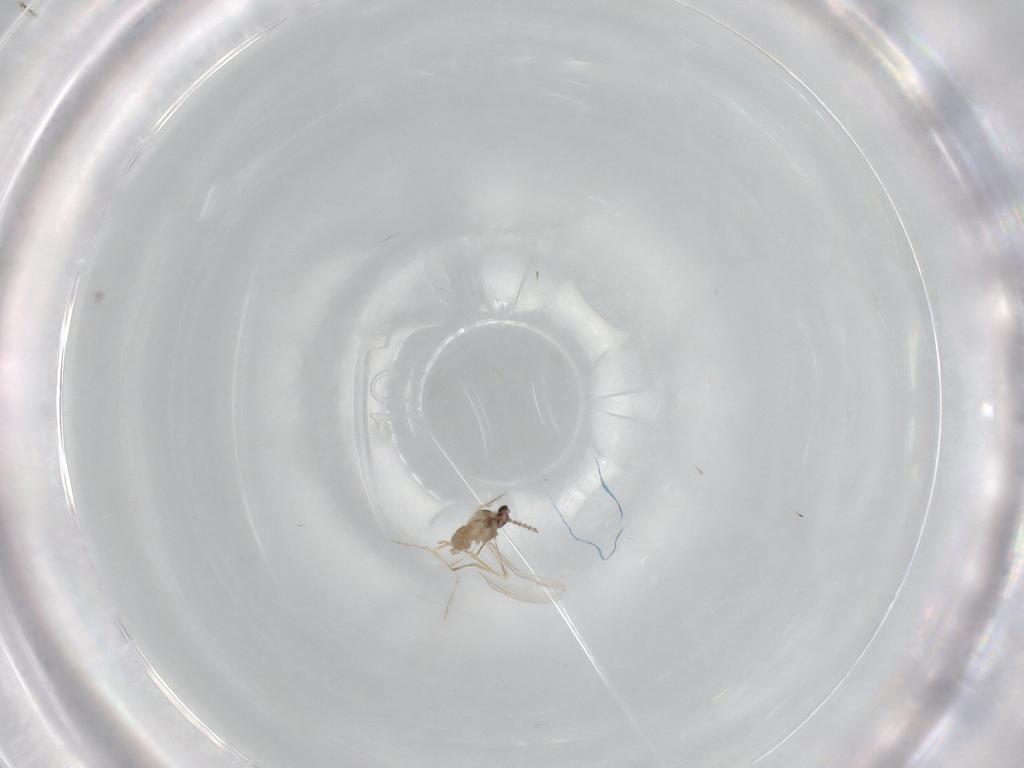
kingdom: Animalia
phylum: Arthropoda
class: Insecta
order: Diptera
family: Cecidomyiidae
